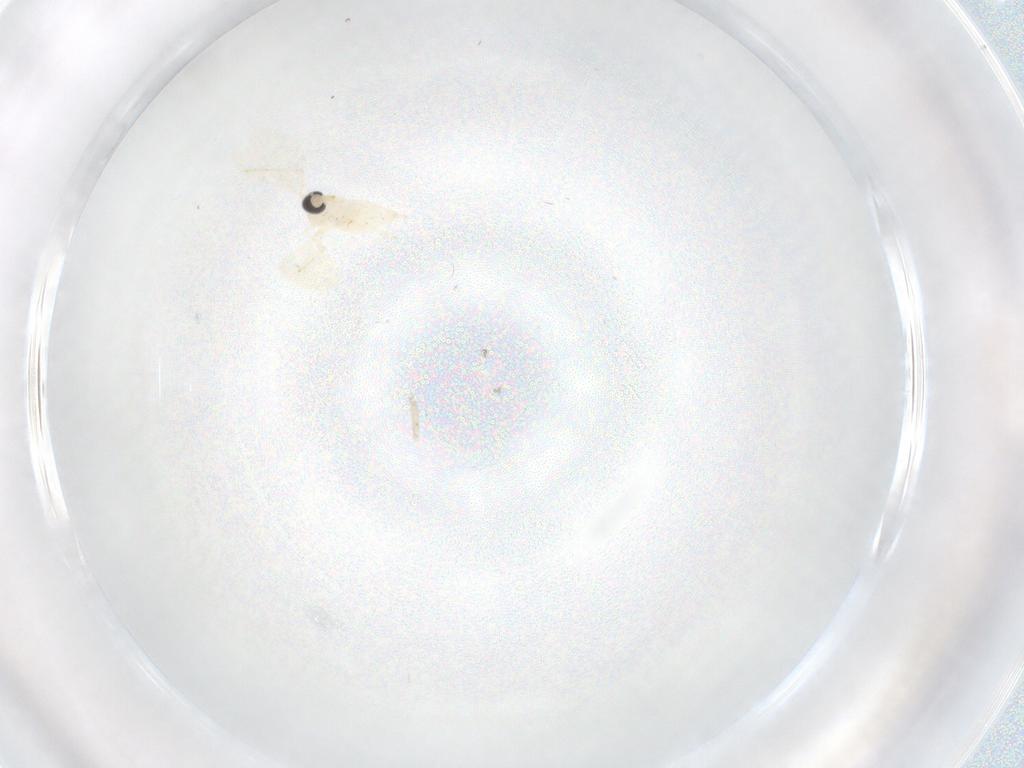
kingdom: Animalia
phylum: Arthropoda
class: Insecta
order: Diptera
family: Cecidomyiidae
